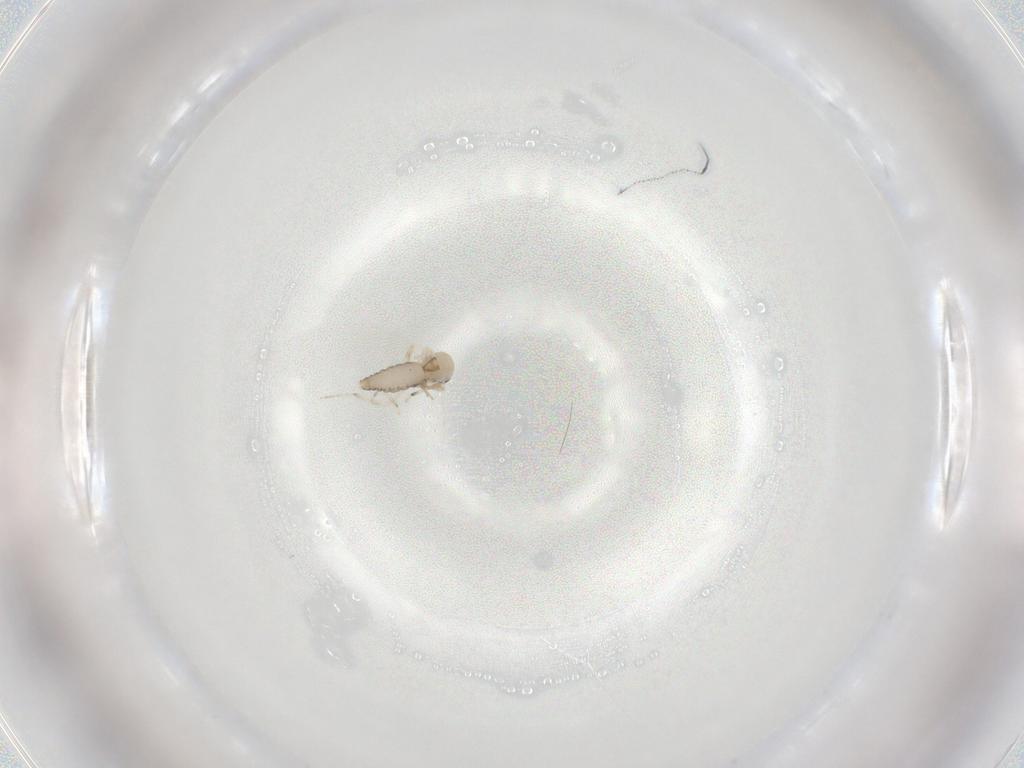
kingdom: Animalia
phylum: Arthropoda
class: Insecta
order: Diptera
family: Ceratopogonidae
